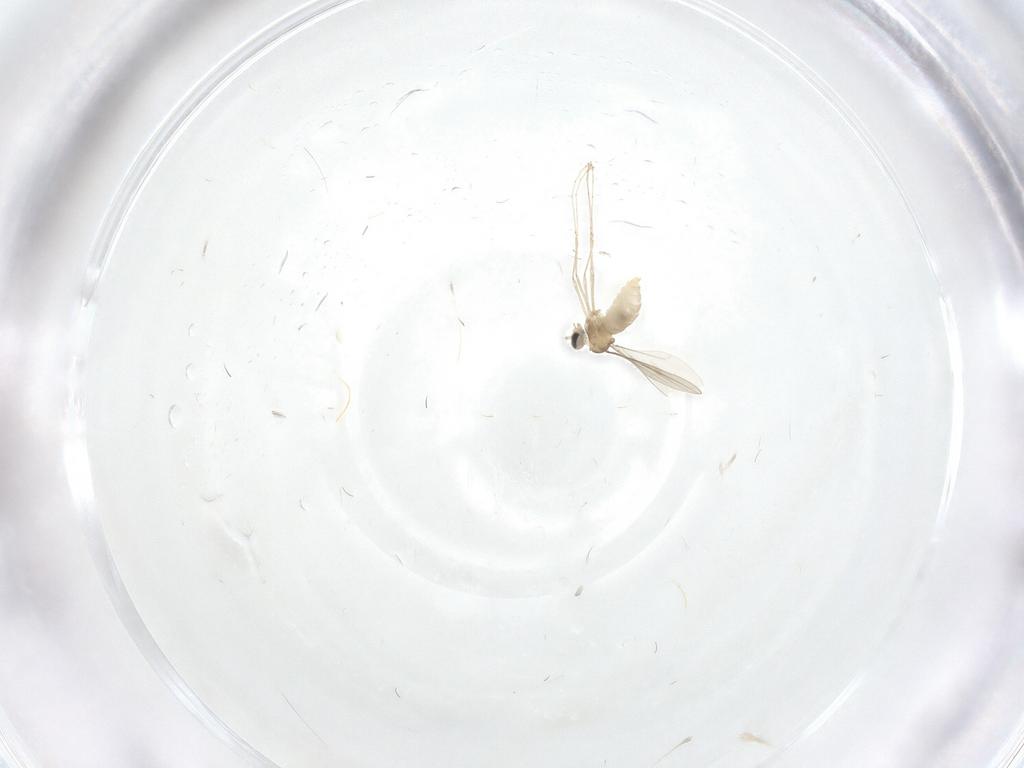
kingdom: Animalia
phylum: Arthropoda
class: Insecta
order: Diptera
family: Cecidomyiidae
